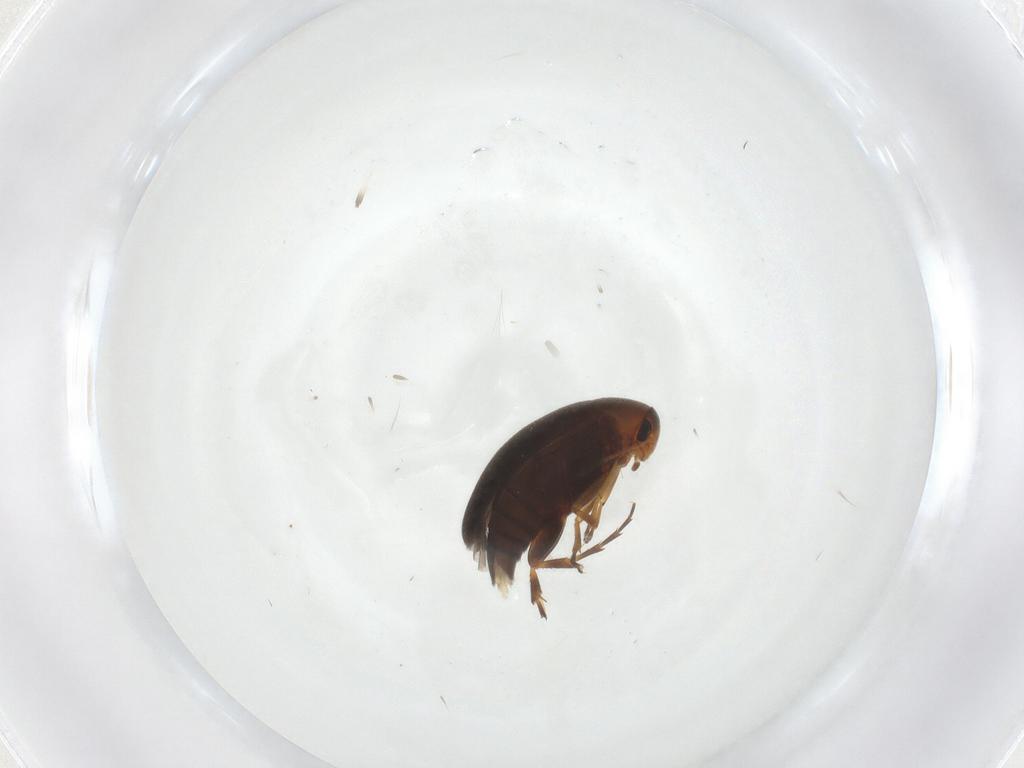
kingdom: Animalia
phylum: Arthropoda
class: Insecta
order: Coleoptera
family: Scraptiidae
